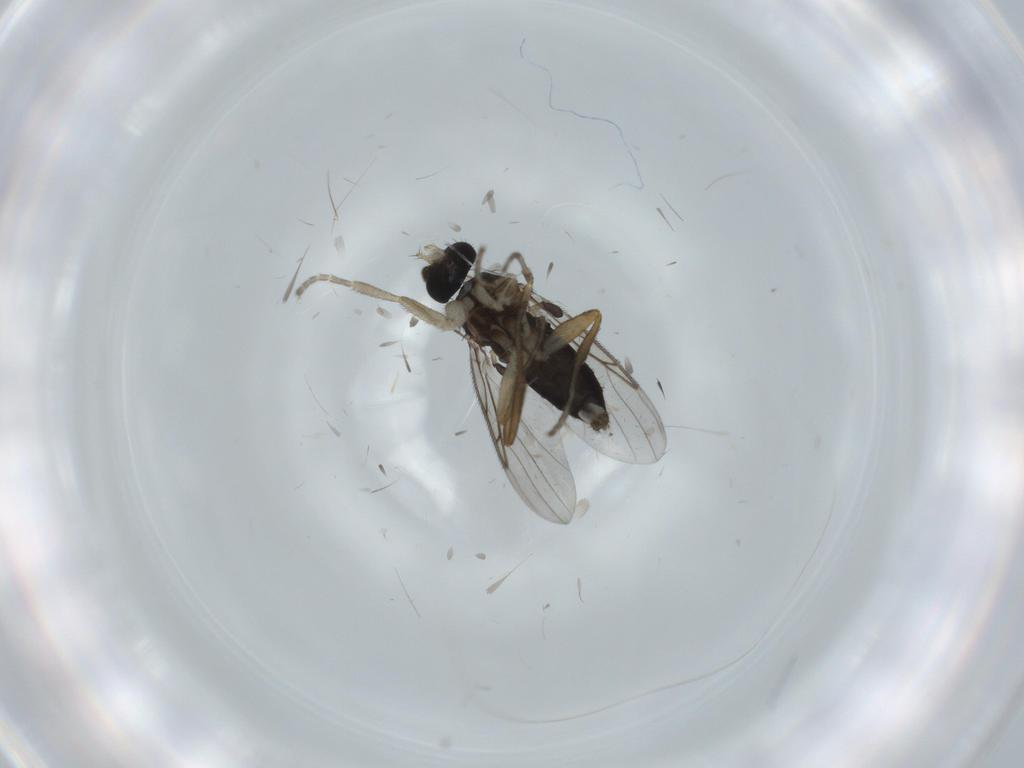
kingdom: Animalia
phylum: Arthropoda
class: Insecta
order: Diptera
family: Milichiidae
